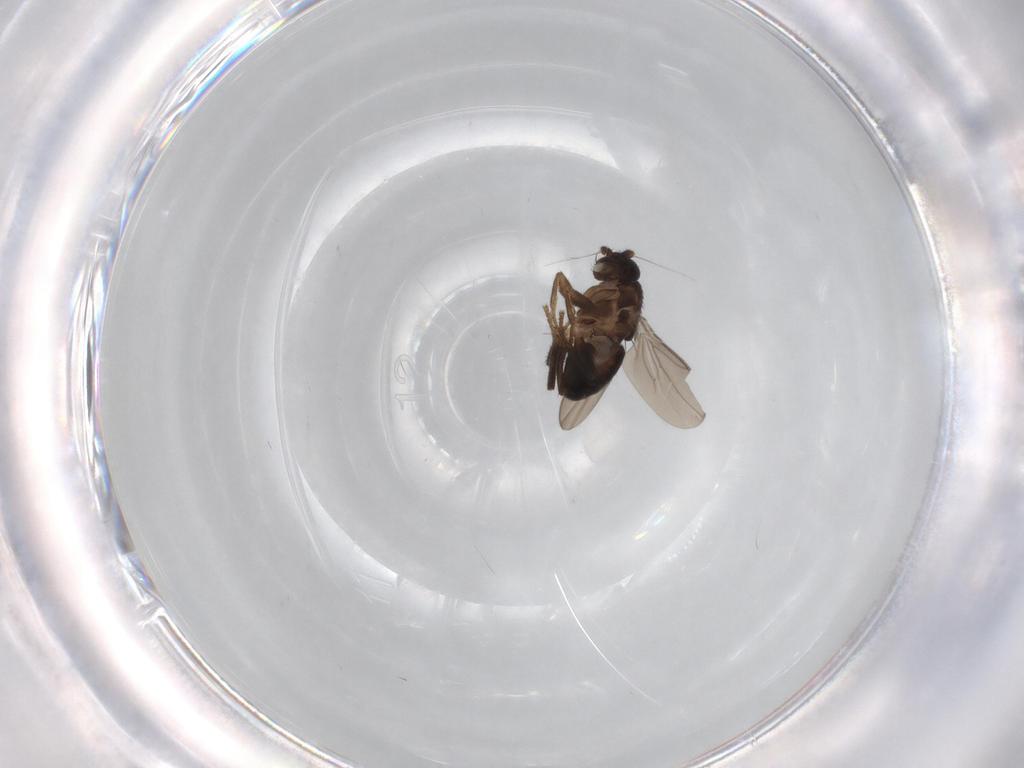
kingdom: Animalia
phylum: Arthropoda
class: Insecta
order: Diptera
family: Sphaeroceridae
